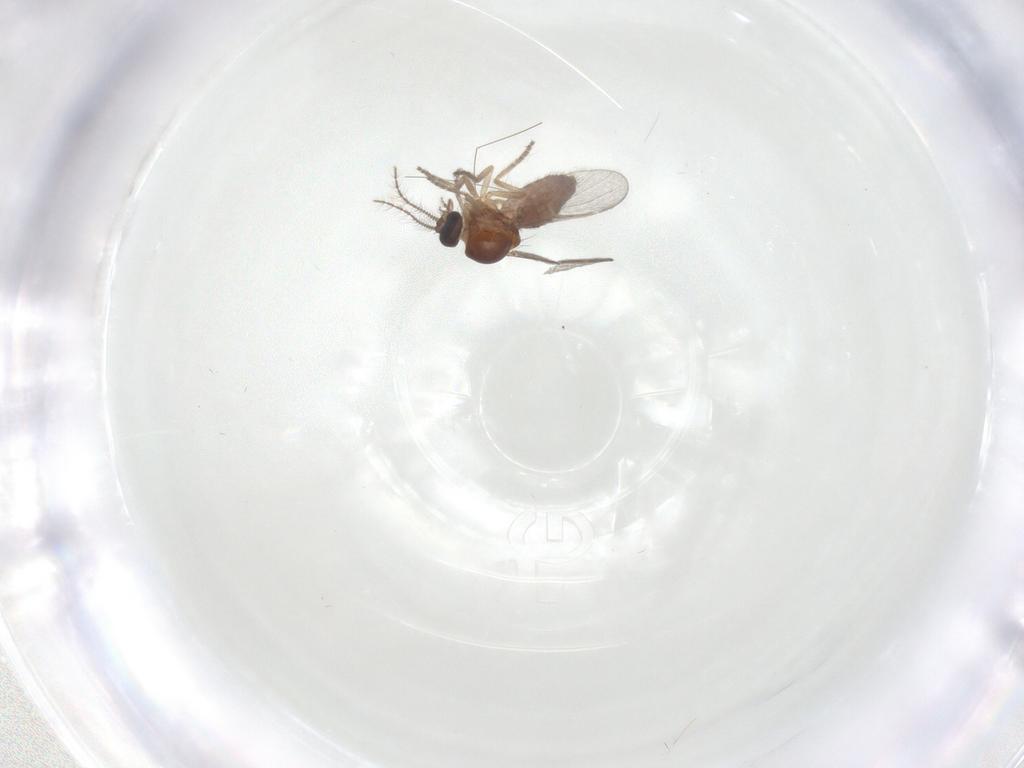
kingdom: Animalia
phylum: Arthropoda
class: Insecta
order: Diptera
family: Ceratopogonidae
